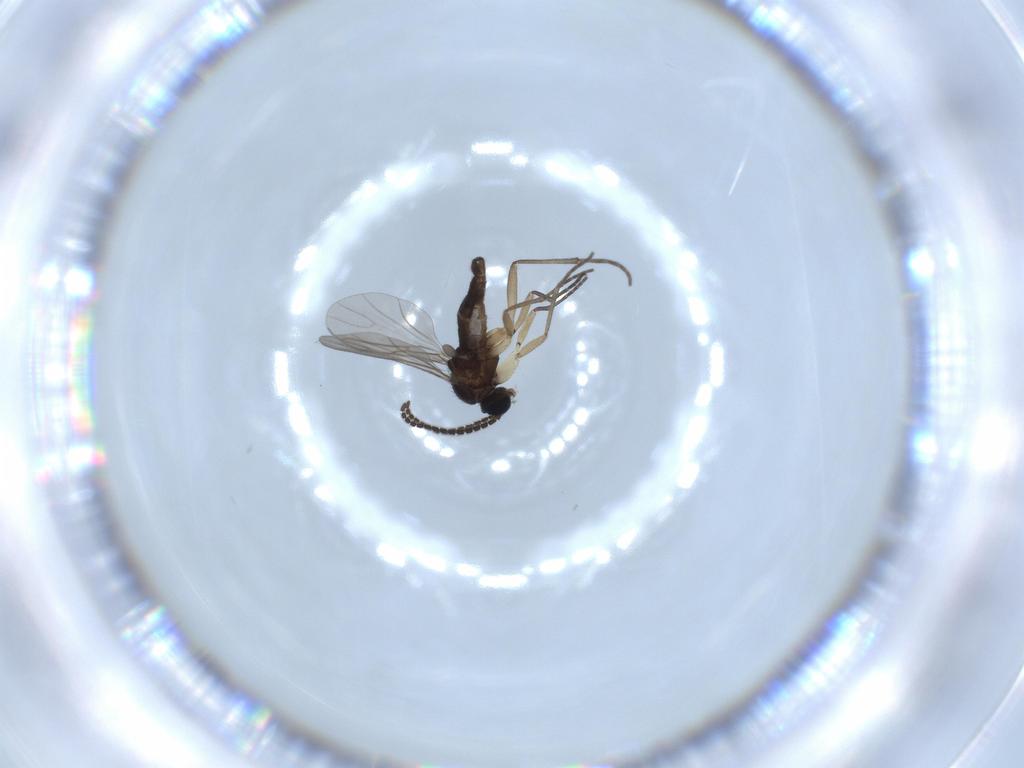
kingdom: Animalia
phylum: Arthropoda
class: Insecta
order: Diptera
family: Sciaridae
